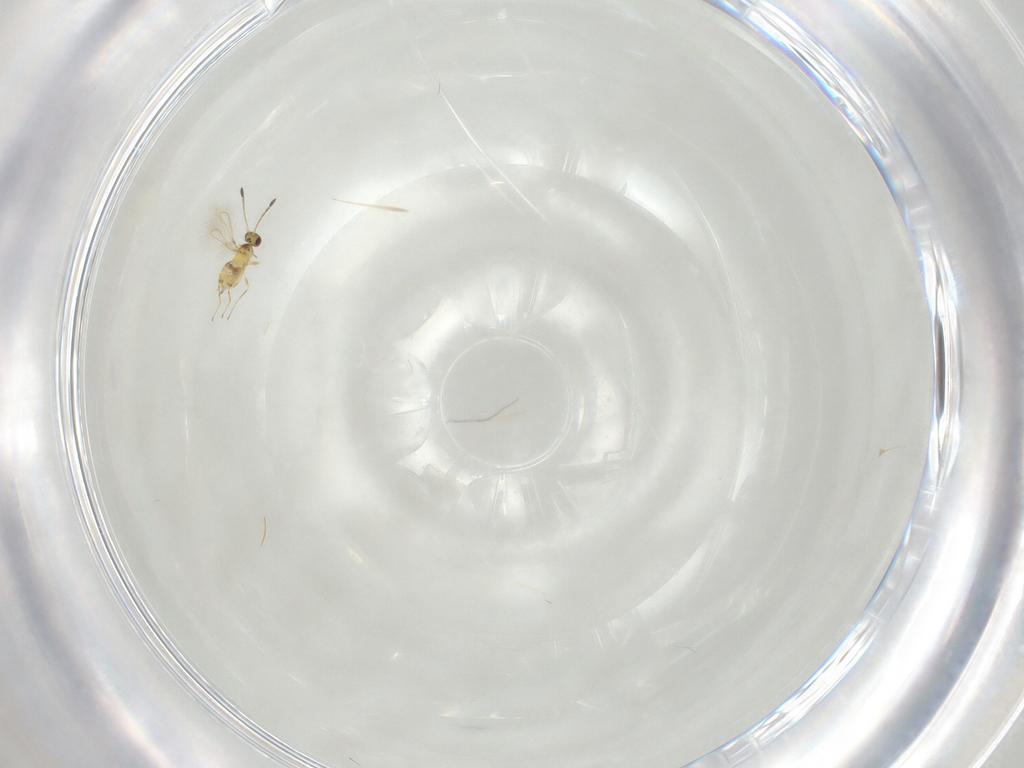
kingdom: Animalia
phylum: Arthropoda
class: Insecta
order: Hymenoptera
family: Mymaridae
